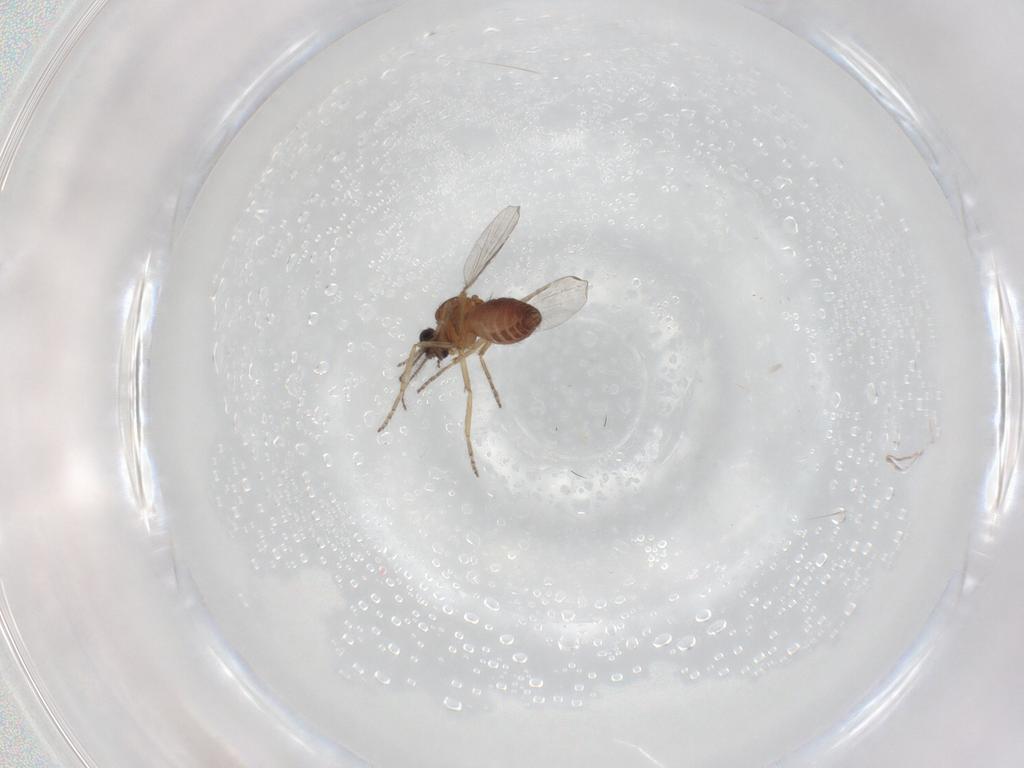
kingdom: Animalia
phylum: Arthropoda
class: Insecta
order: Diptera
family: Ceratopogonidae
